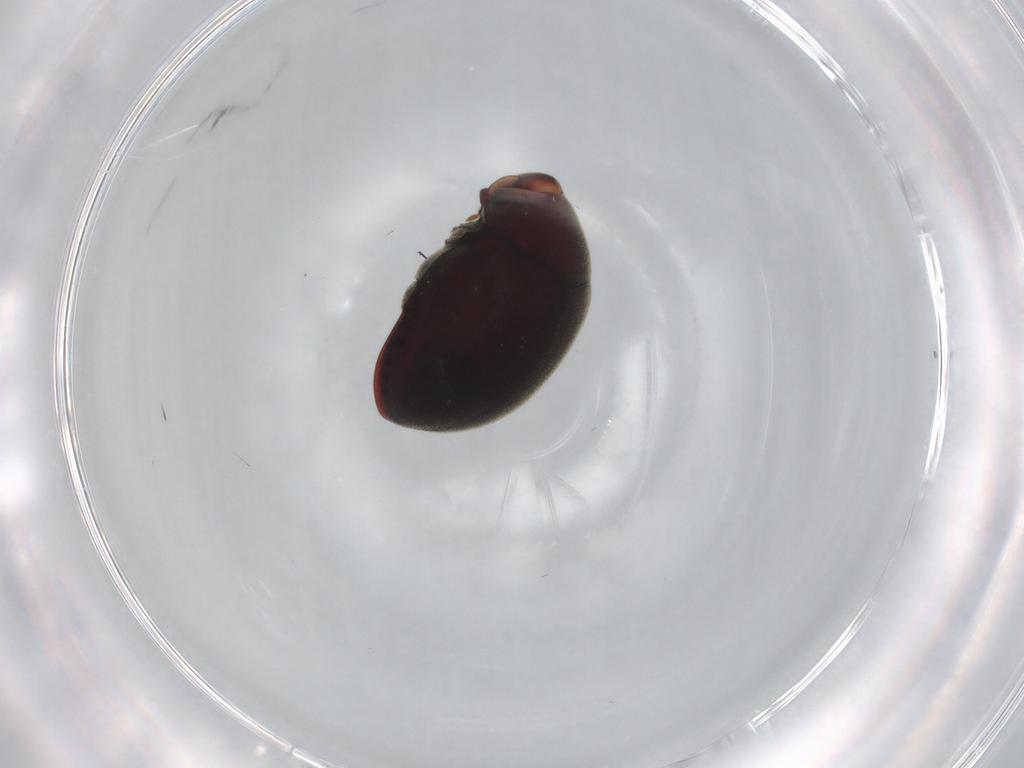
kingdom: Animalia
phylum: Arthropoda
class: Insecta
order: Coleoptera
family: Ptinidae
